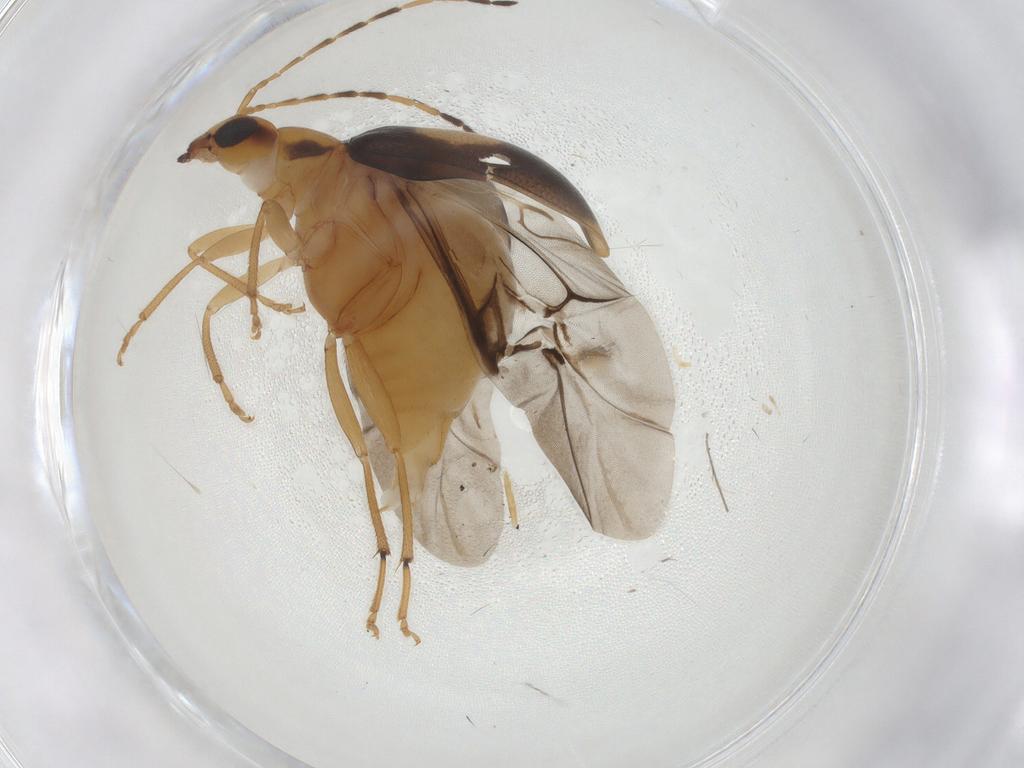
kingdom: Animalia
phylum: Arthropoda
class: Insecta
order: Coleoptera
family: Chrysomelidae
